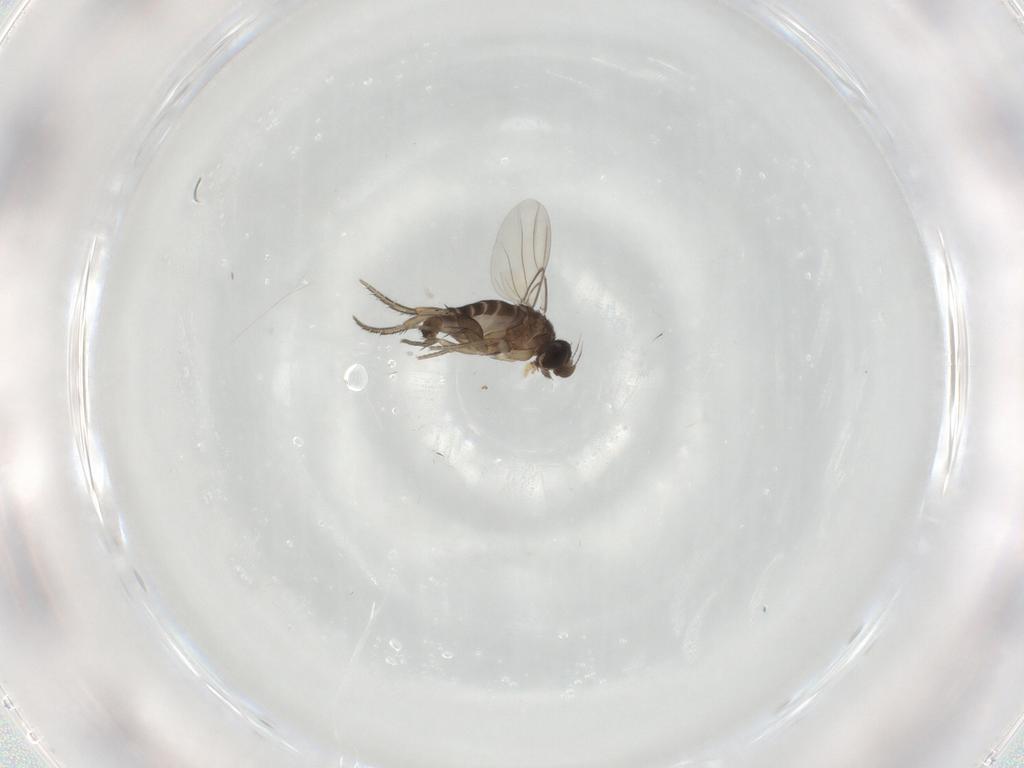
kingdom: Animalia
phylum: Arthropoda
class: Insecta
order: Diptera
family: Phoridae
